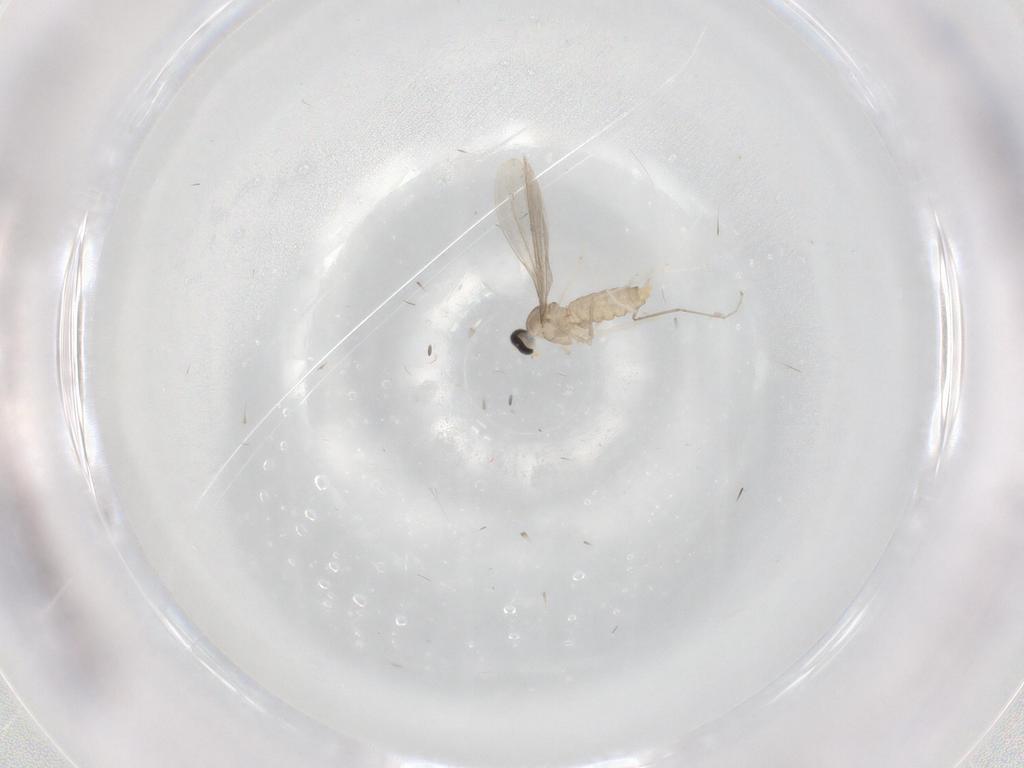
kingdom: Animalia
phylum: Arthropoda
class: Insecta
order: Diptera
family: Cecidomyiidae
